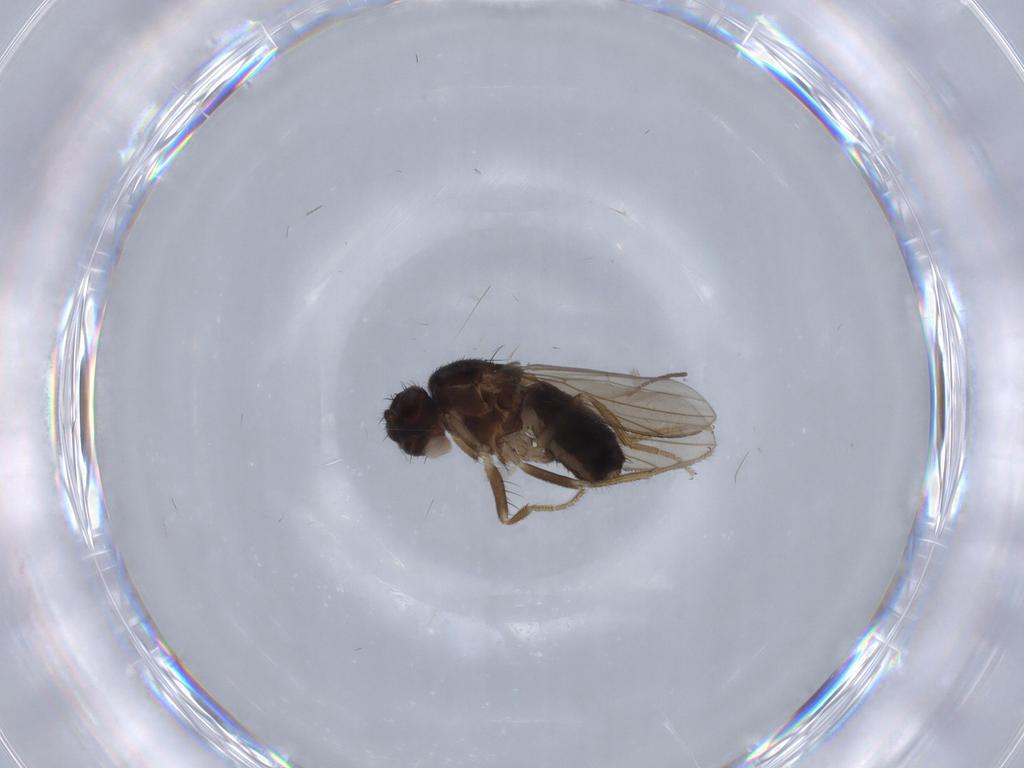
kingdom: Animalia
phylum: Arthropoda
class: Insecta
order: Diptera
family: Drosophilidae
